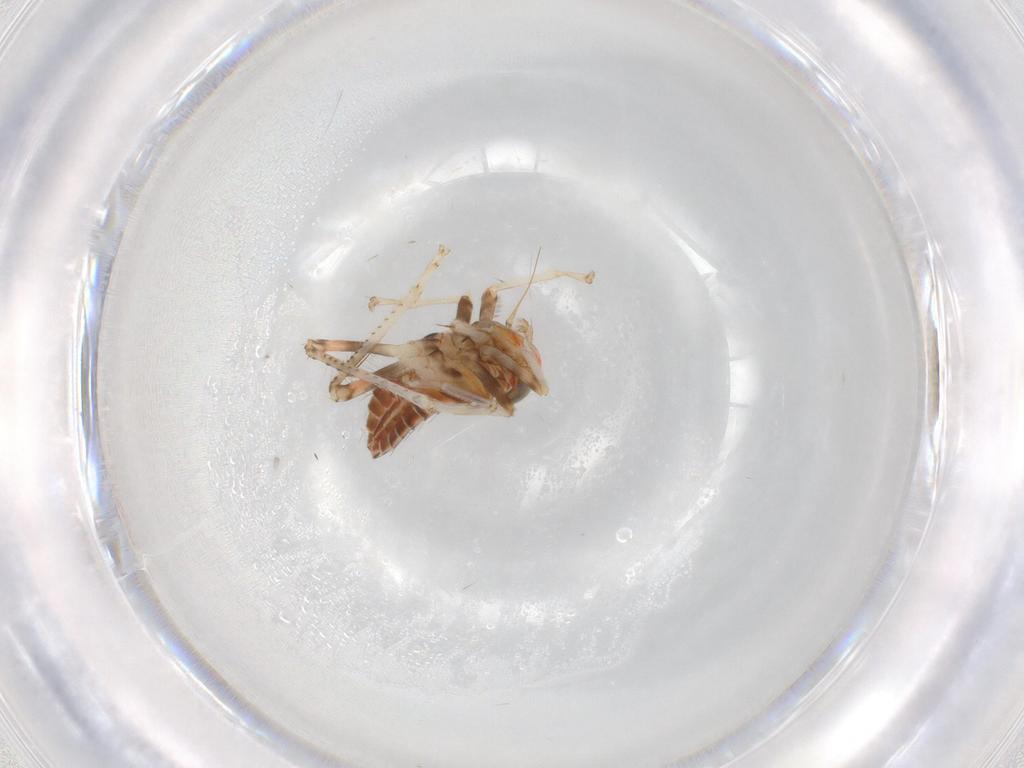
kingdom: Animalia
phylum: Arthropoda
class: Insecta
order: Hemiptera
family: Cicadellidae
